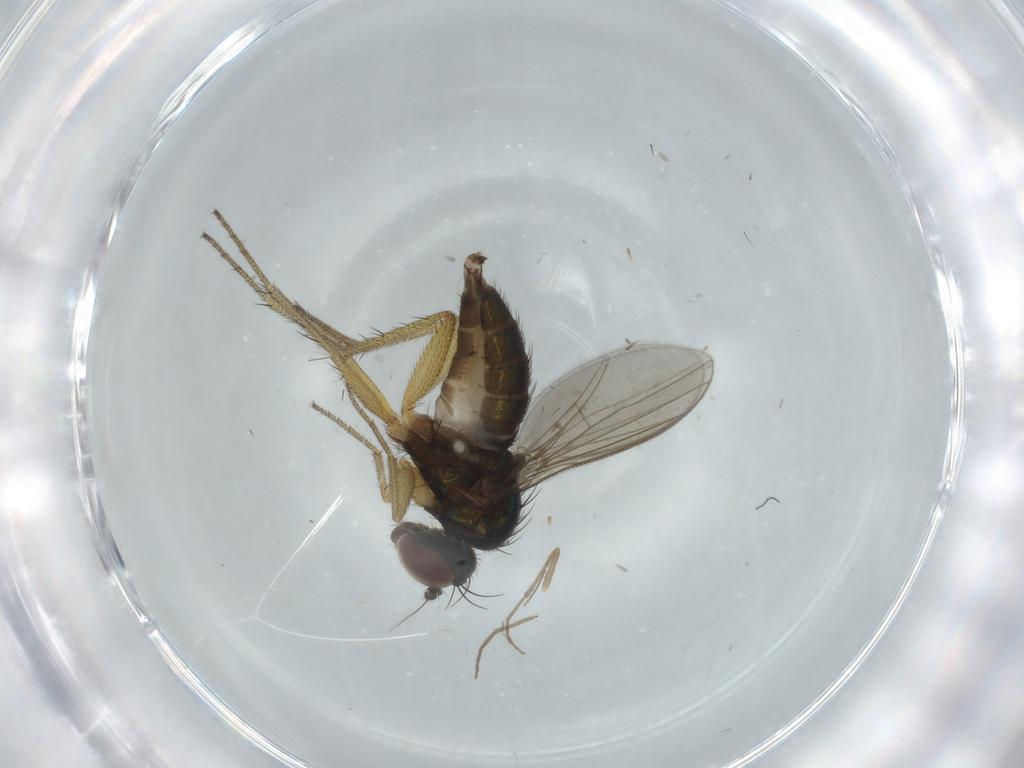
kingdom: Animalia
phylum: Arthropoda
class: Insecta
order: Diptera
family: Dolichopodidae
